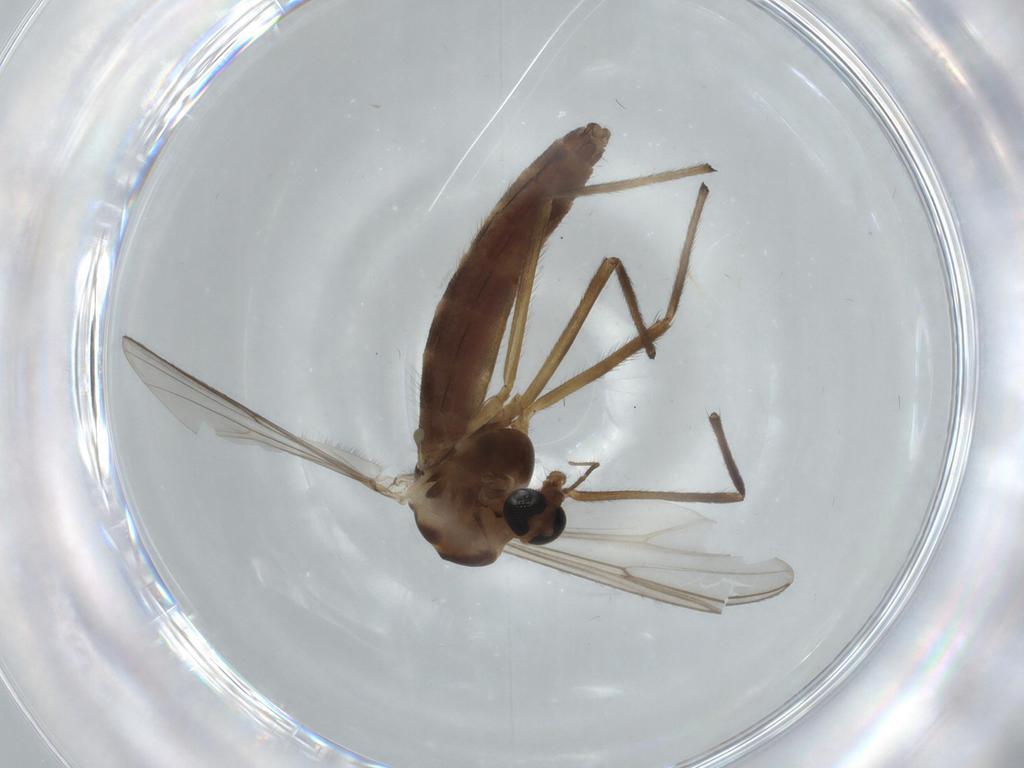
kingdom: Animalia
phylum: Arthropoda
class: Insecta
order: Diptera
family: Chironomidae
